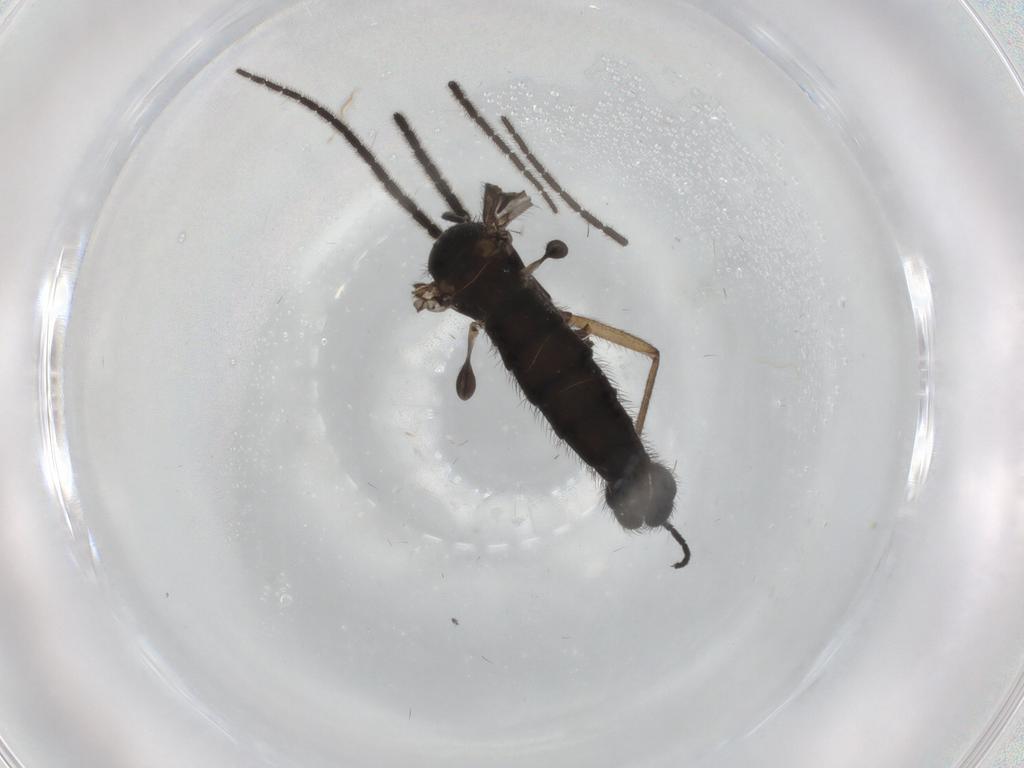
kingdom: Animalia
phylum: Arthropoda
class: Insecta
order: Diptera
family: Sciaridae
